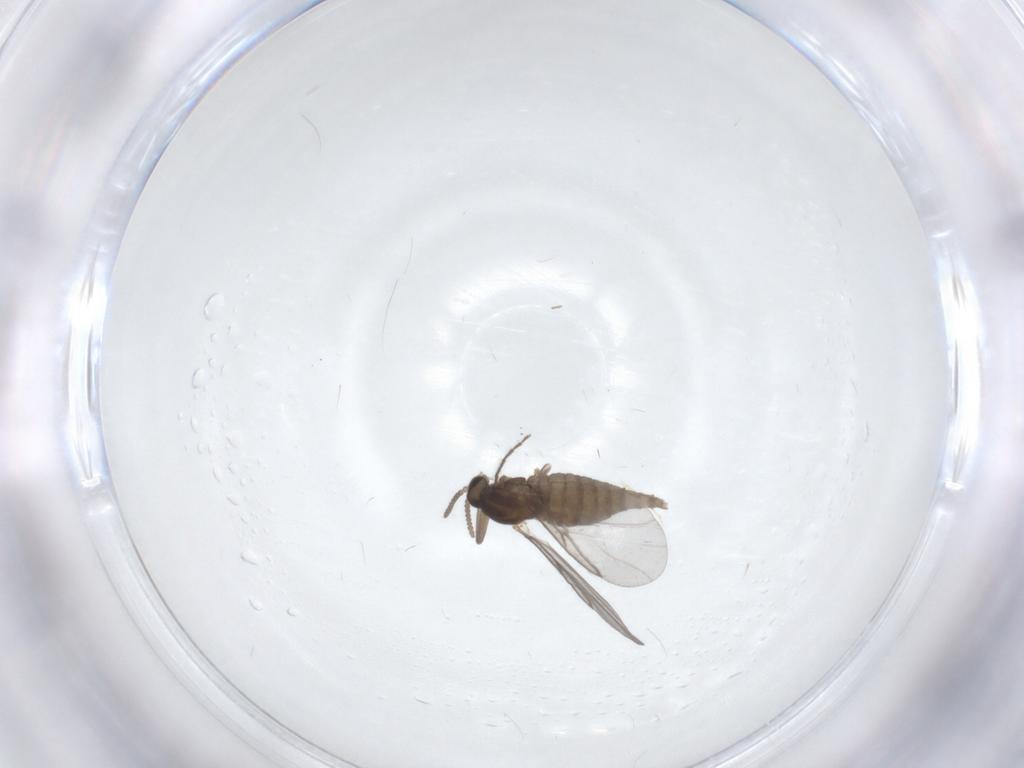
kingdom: Animalia
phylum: Arthropoda
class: Insecta
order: Diptera
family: Cecidomyiidae
